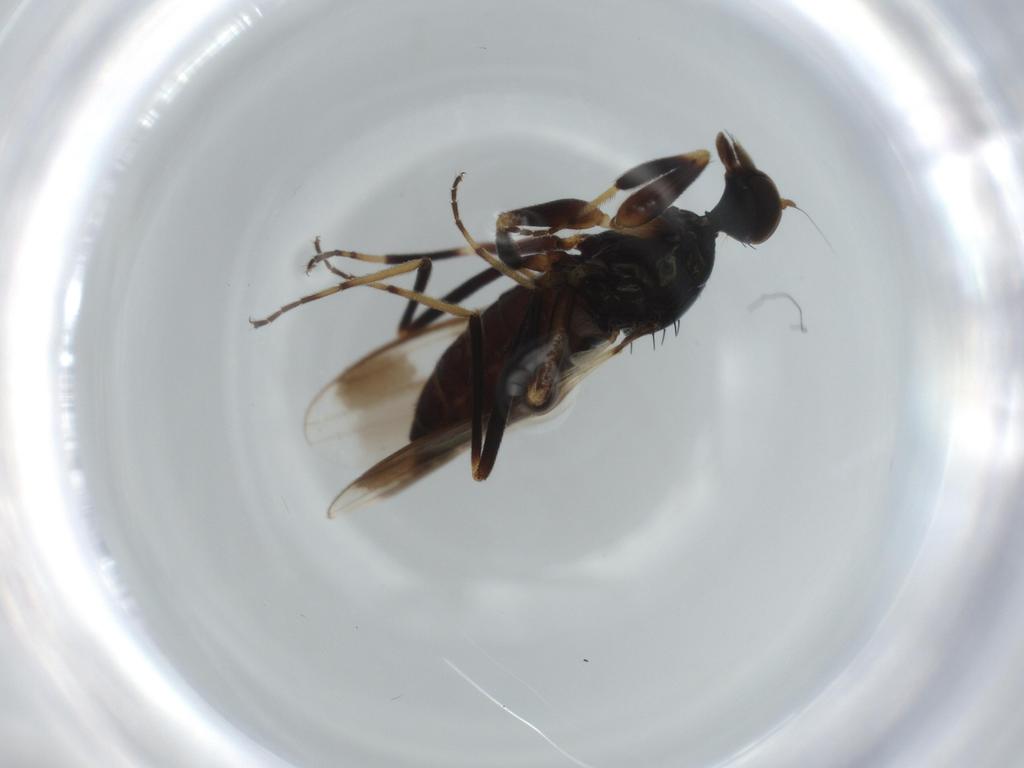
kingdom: Animalia
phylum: Arthropoda
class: Insecta
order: Diptera
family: Hybotidae
